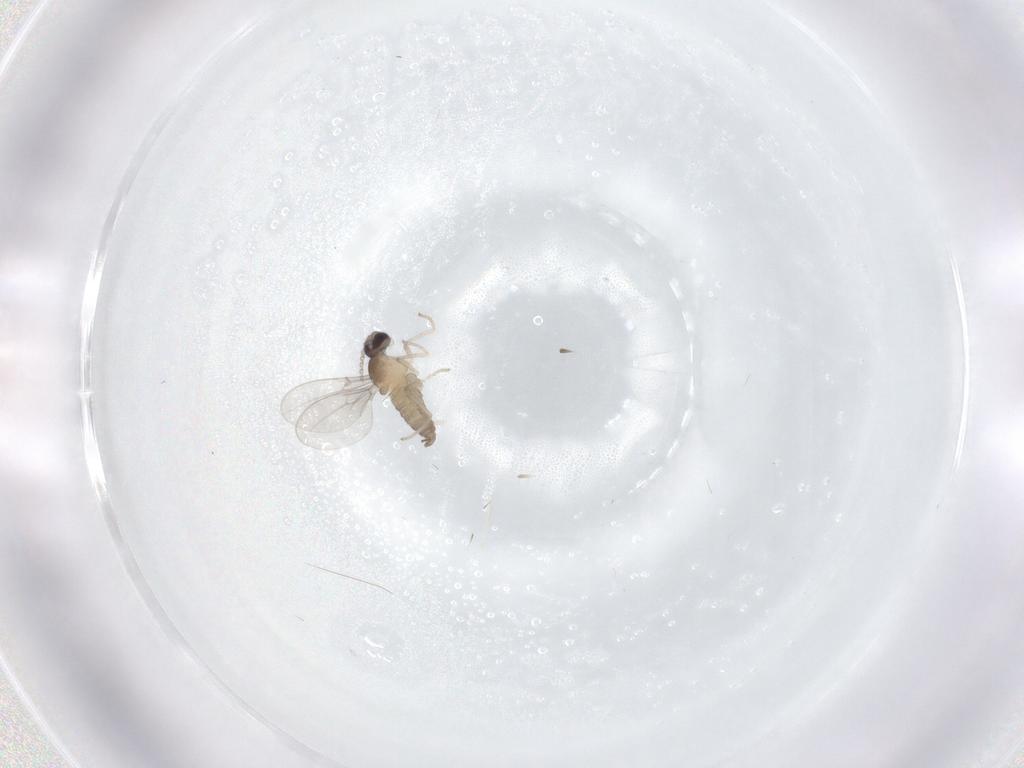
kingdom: Animalia
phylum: Arthropoda
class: Insecta
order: Diptera
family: Cecidomyiidae
